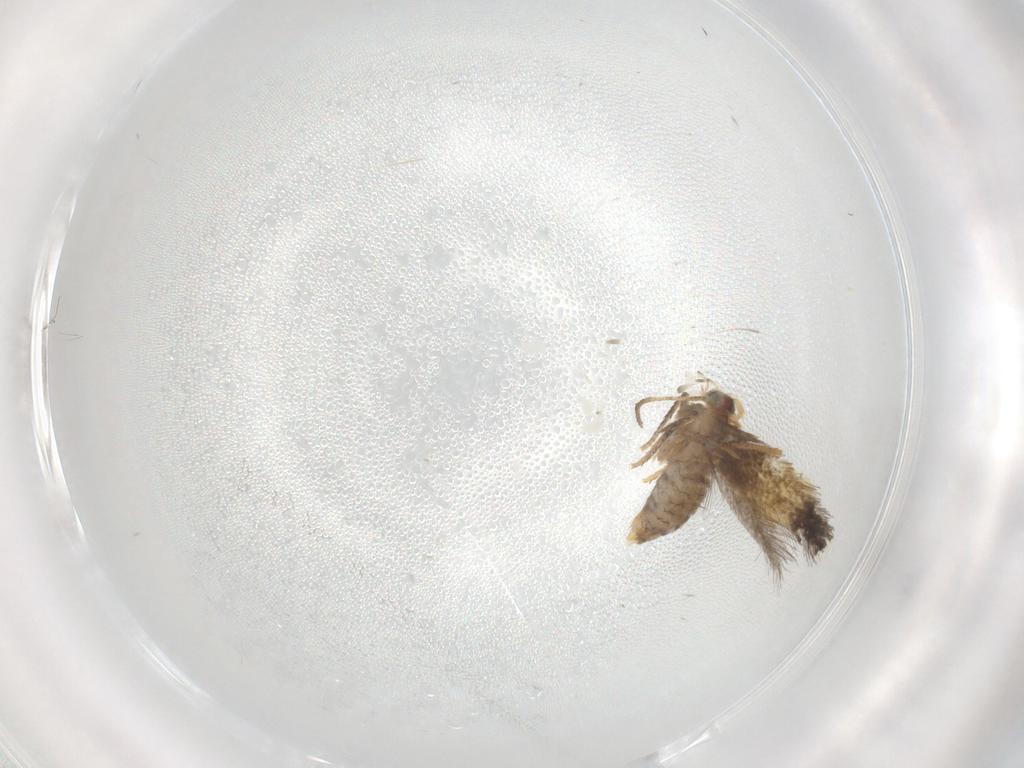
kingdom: Animalia
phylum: Arthropoda
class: Insecta
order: Lepidoptera
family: Nepticulidae
